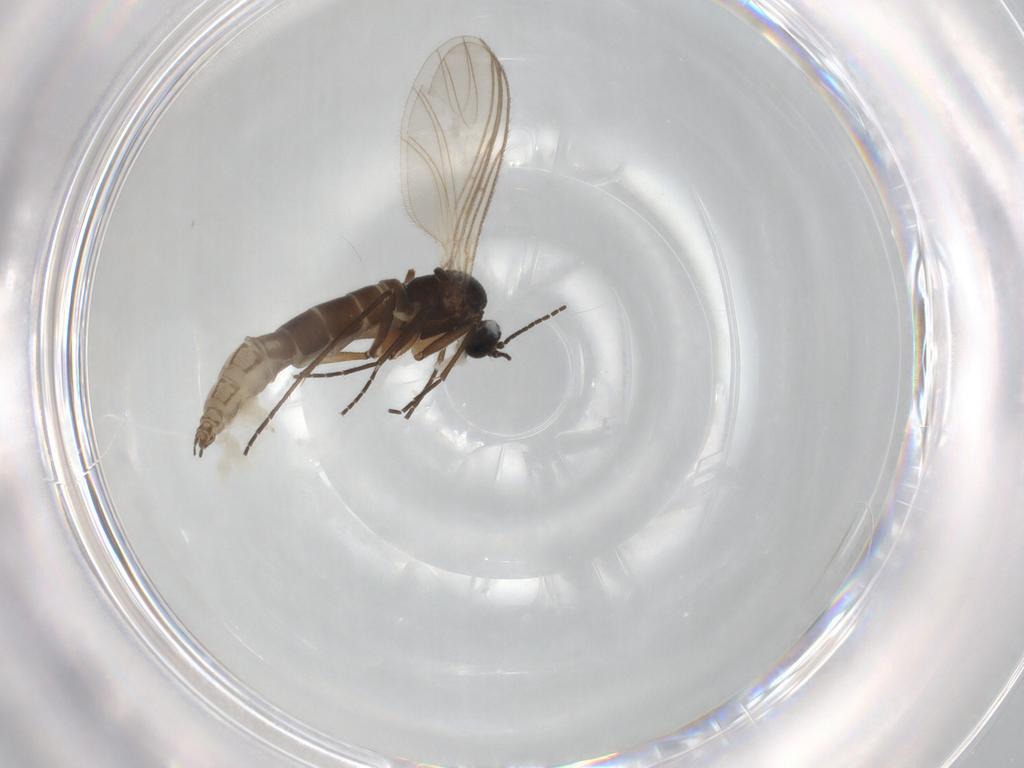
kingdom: Animalia
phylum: Arthropoda
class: Insecta
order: Diptera
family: Sciaridae
